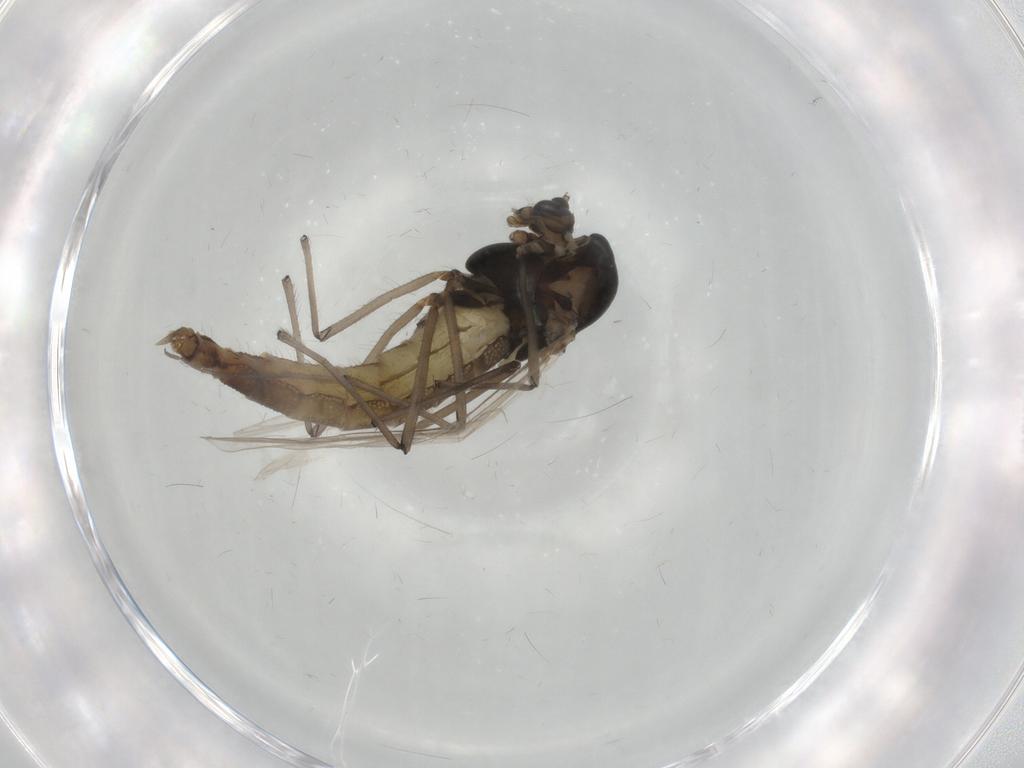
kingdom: Animalia
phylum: Arthropoda
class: Insecta
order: Diptera
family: Chironomidae
